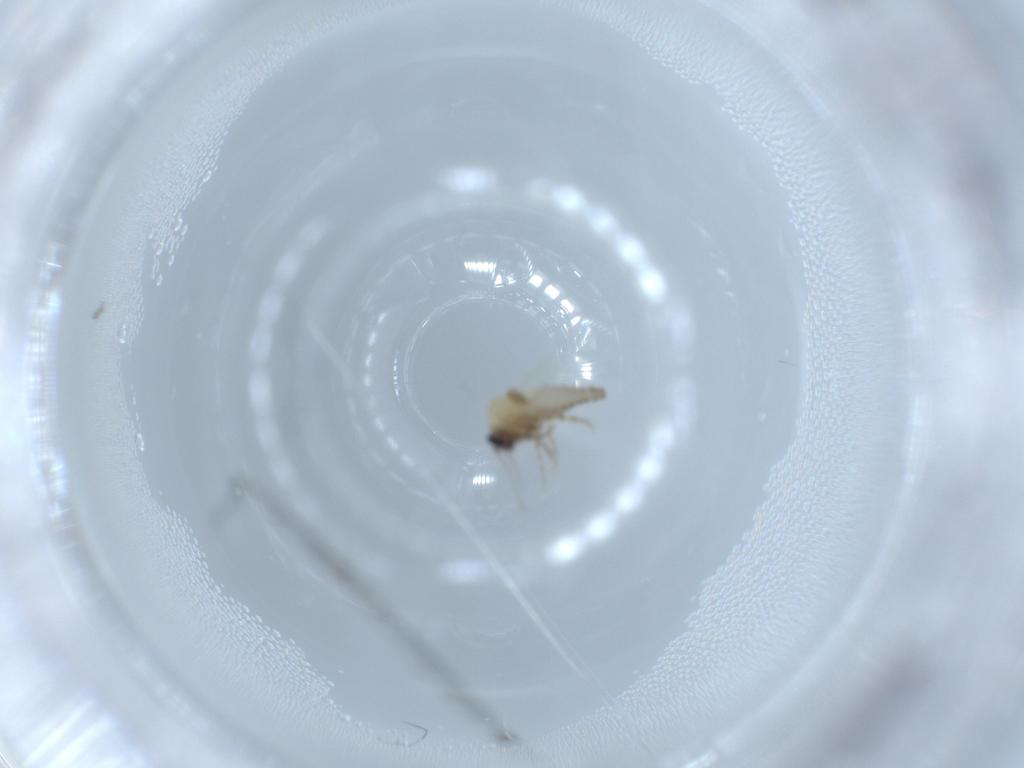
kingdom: Animalia
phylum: Arthropoda
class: Insecta
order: Diptera
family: Ceratopogonidae
